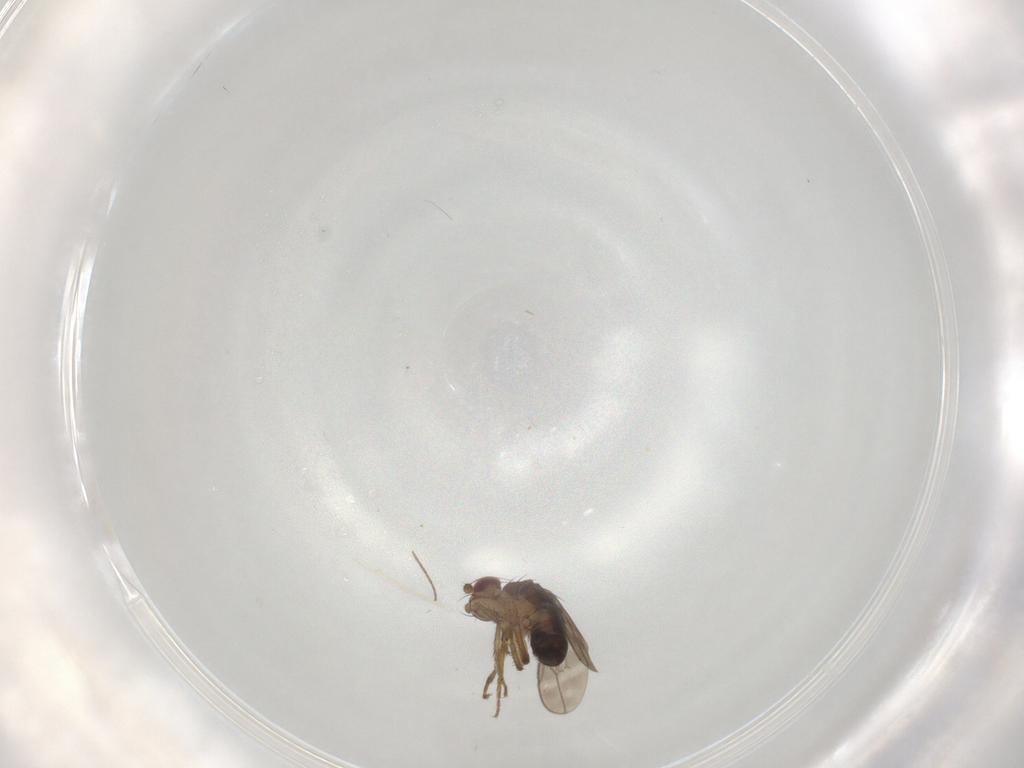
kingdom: Animalia
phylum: Arthropoda
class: Insecta
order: Diptera
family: Sphaeroceridae
